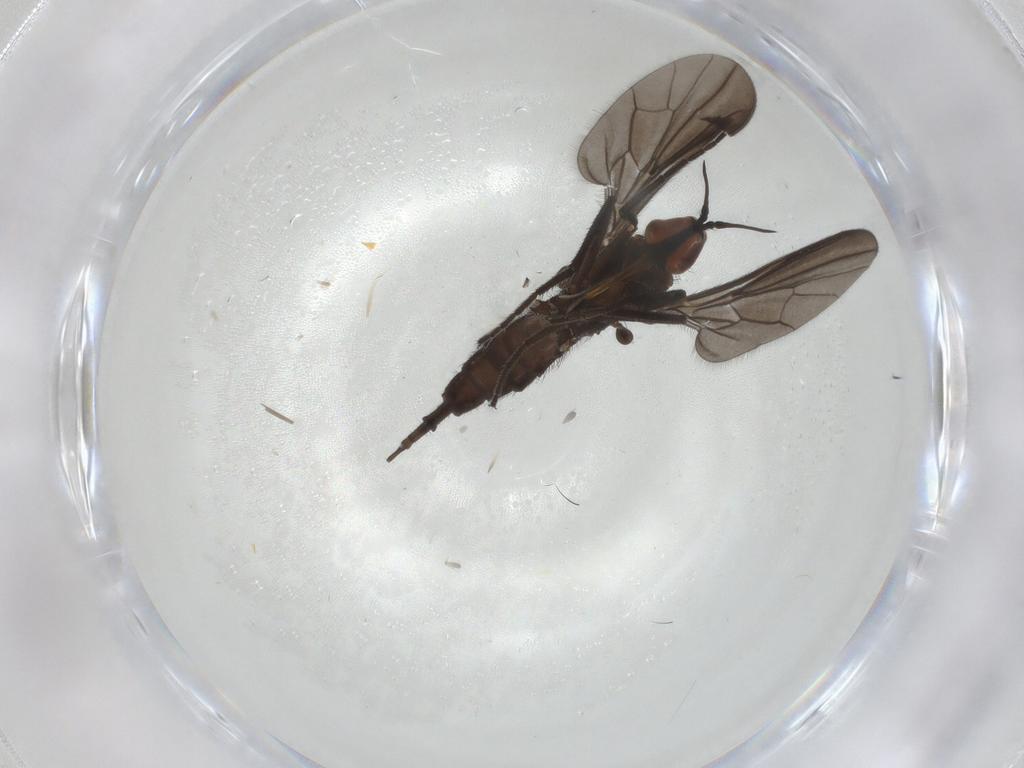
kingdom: Animalia
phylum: Arthropoda
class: Insecta
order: Diptera
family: Empididae
